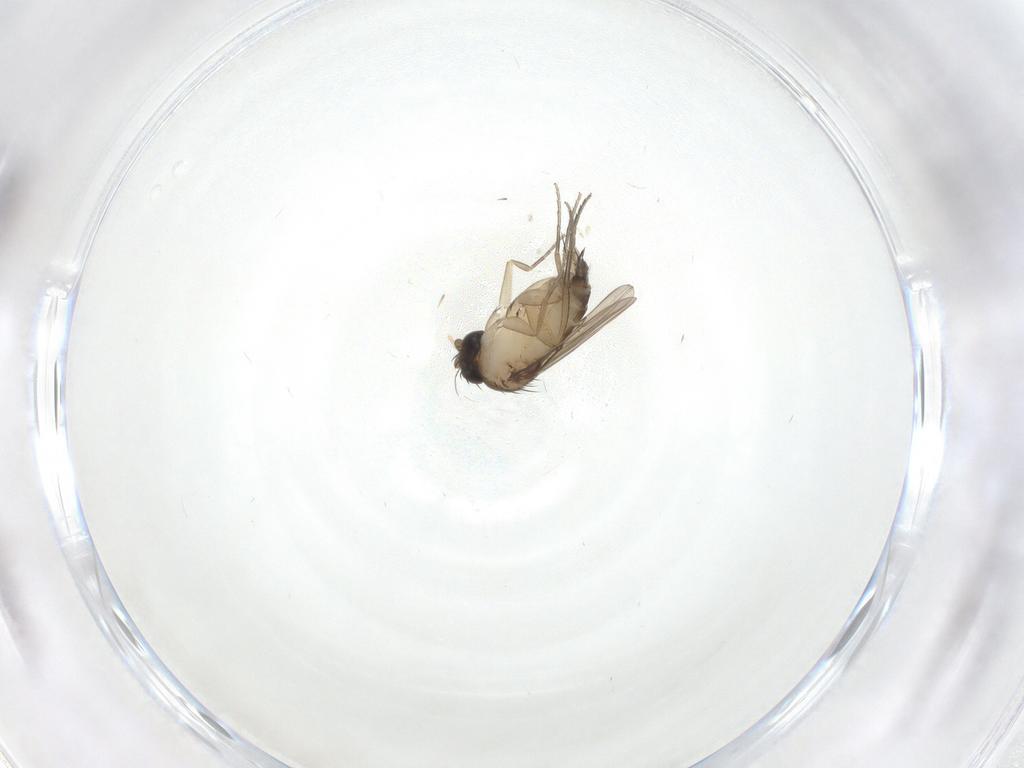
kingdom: Animalia
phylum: Arthropoda
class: Insecta
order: Diptera
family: Phoridae
